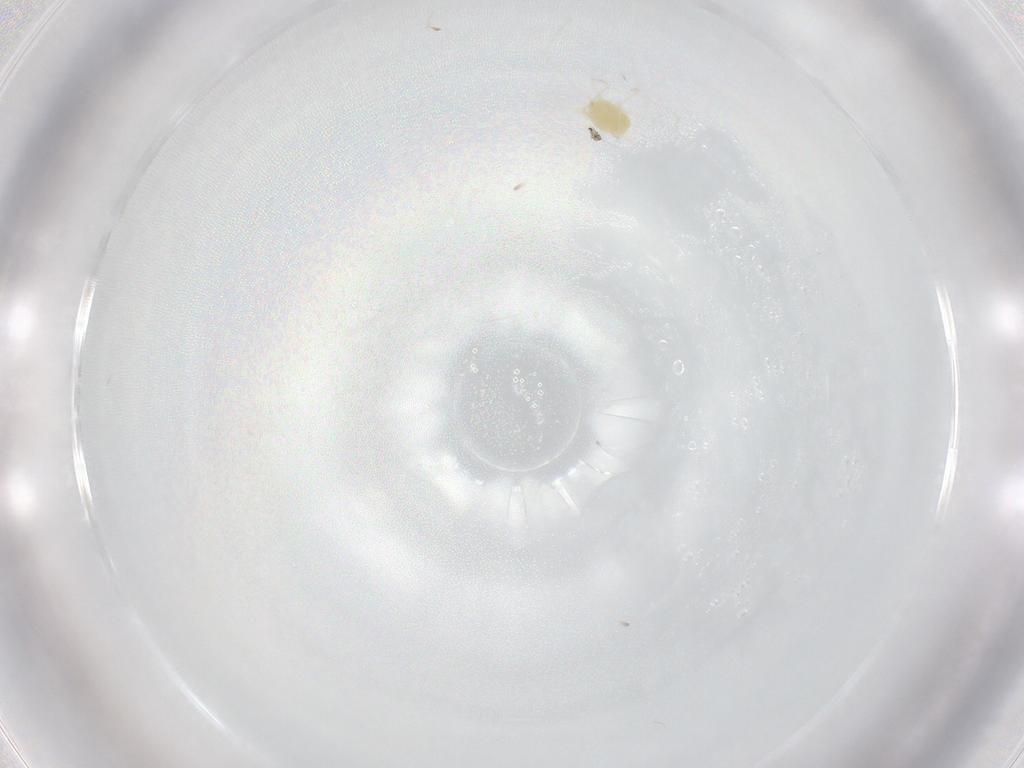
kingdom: Animalia
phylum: Arthropoda
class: Arachnida
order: Trombidiformes
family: Tetranychidae
